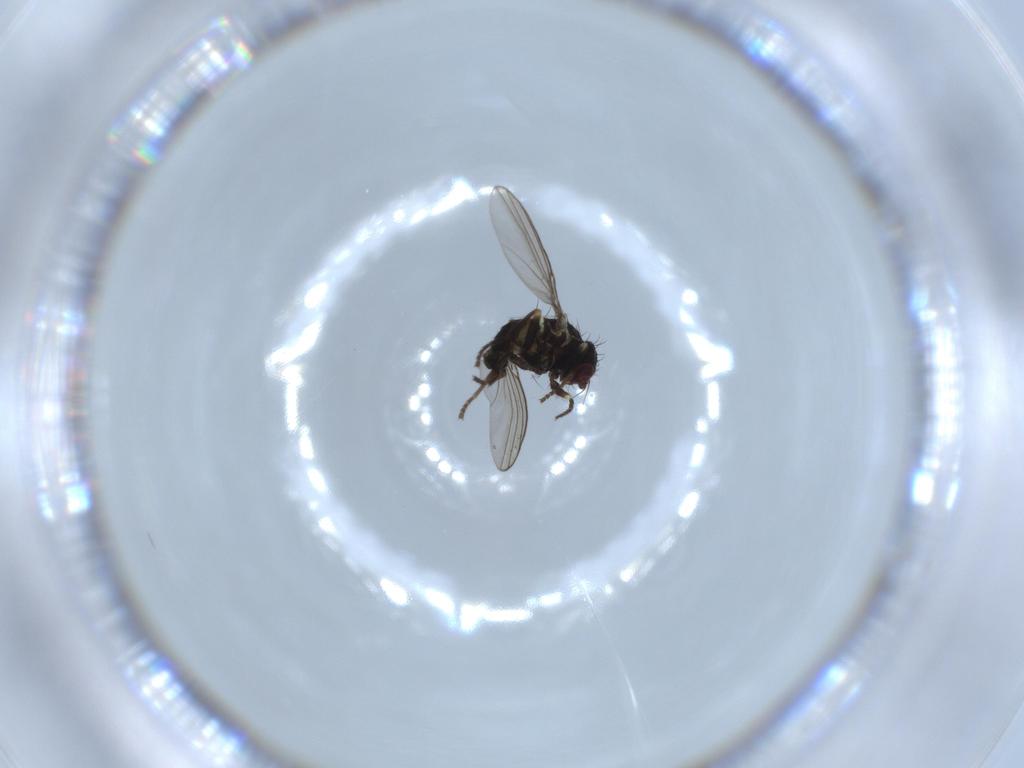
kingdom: Animalia
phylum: Arthropoda
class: Insecta
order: Diptera
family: Agromyzidae
